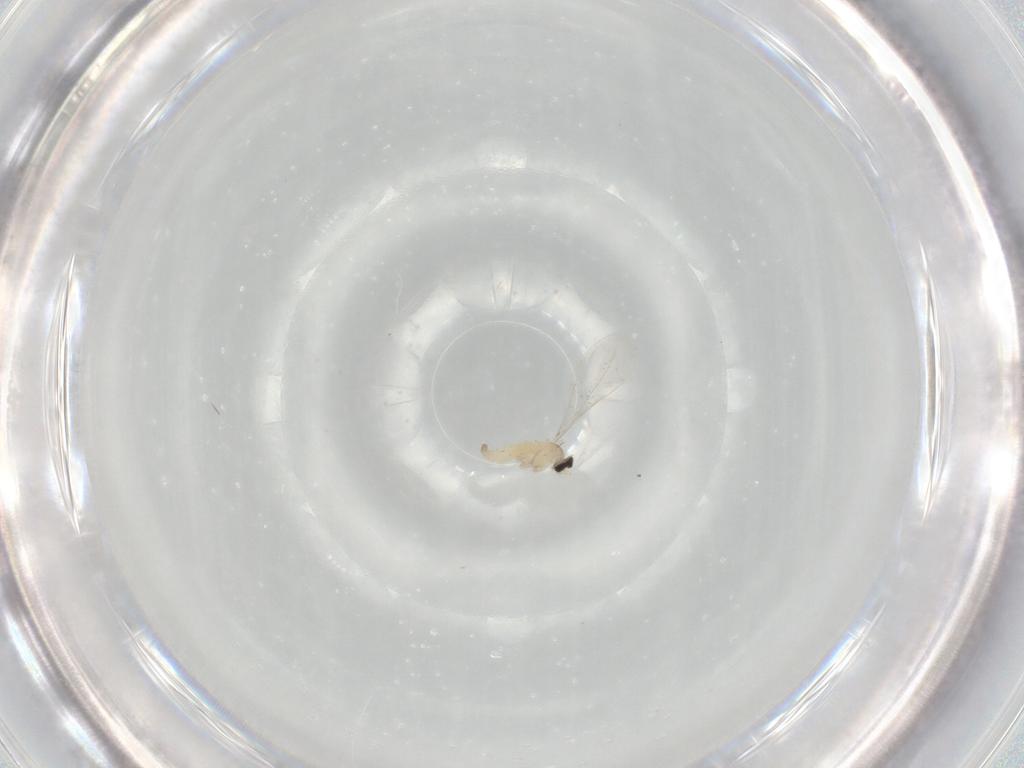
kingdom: Animalia
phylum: Arthropoda
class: Insecta
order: Diptera
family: Cecidomyiidae
